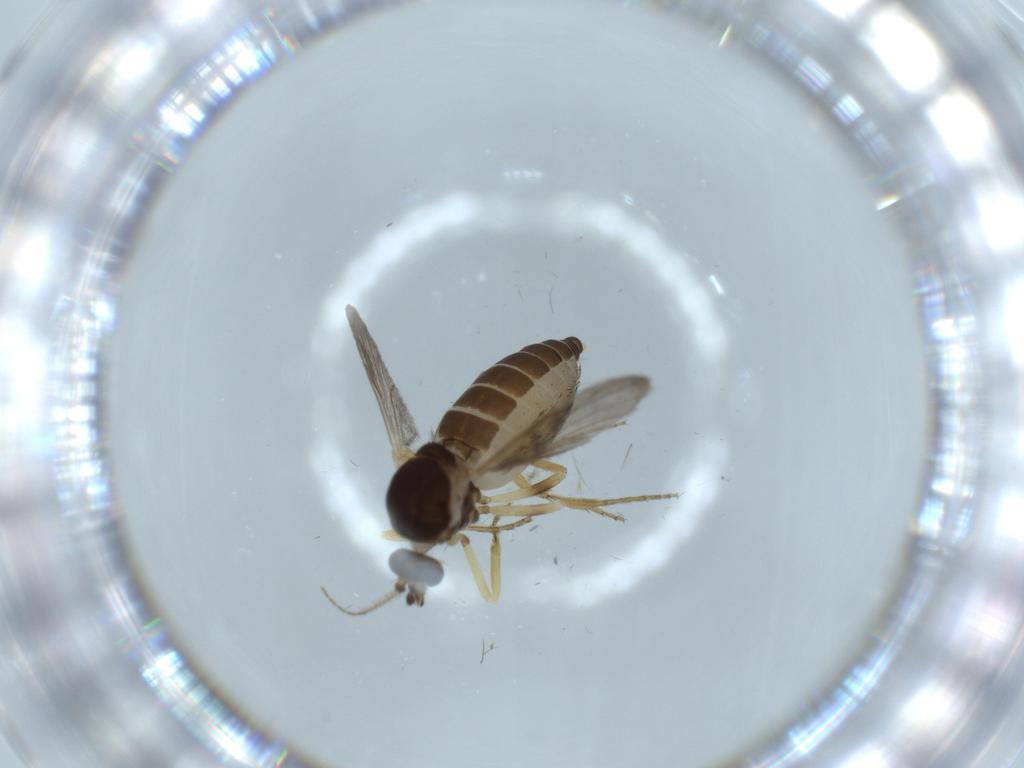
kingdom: Animalia
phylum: Arthropoda
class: Insecta
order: Diptera
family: Ceratopogonidae
